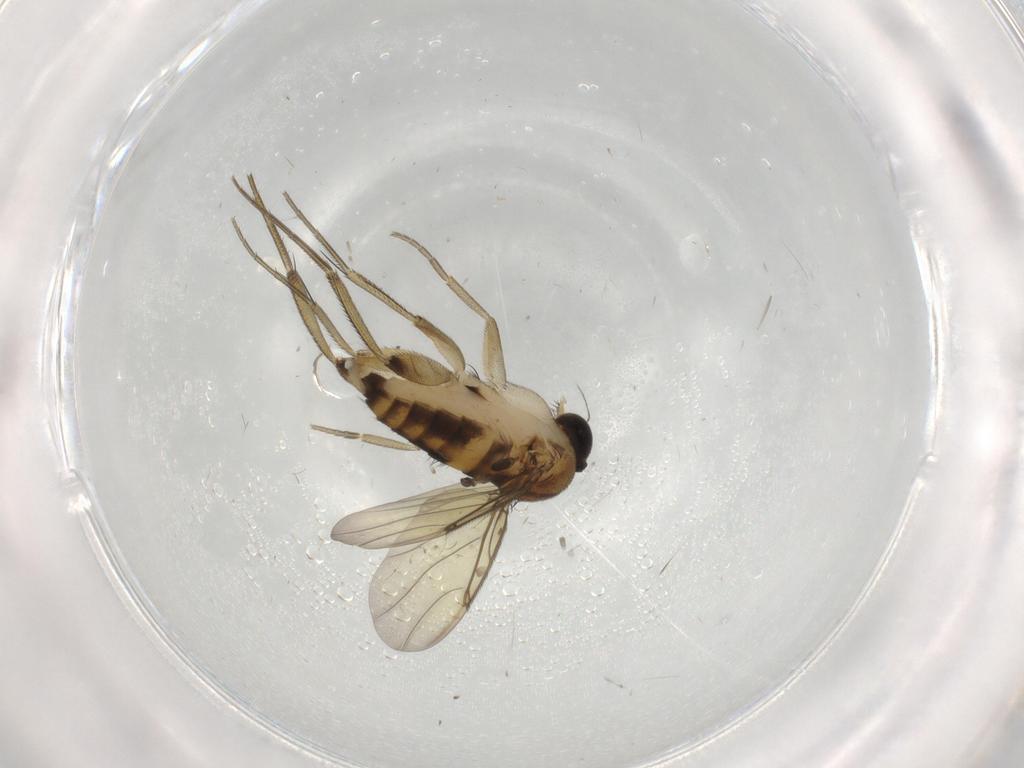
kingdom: Animalia
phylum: Arthropoda
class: Insecta
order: Diptera
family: Phoridae
